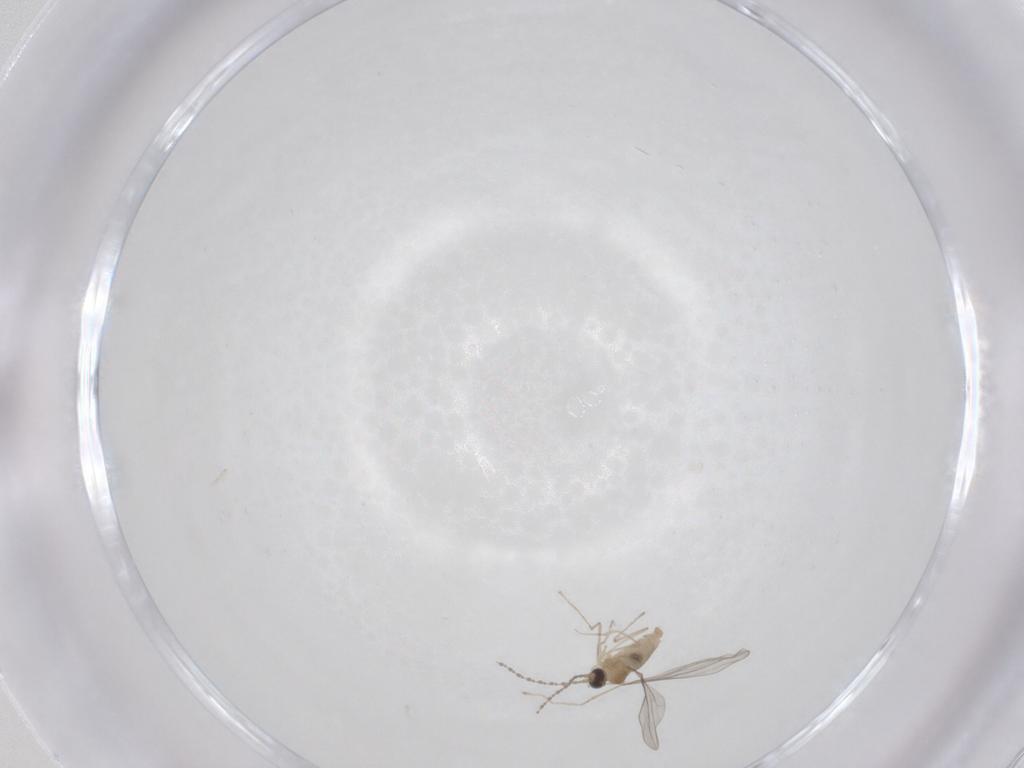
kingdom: Animalia
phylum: Arthropoda
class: Insecta
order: Diptera
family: Cecidomyiidae
